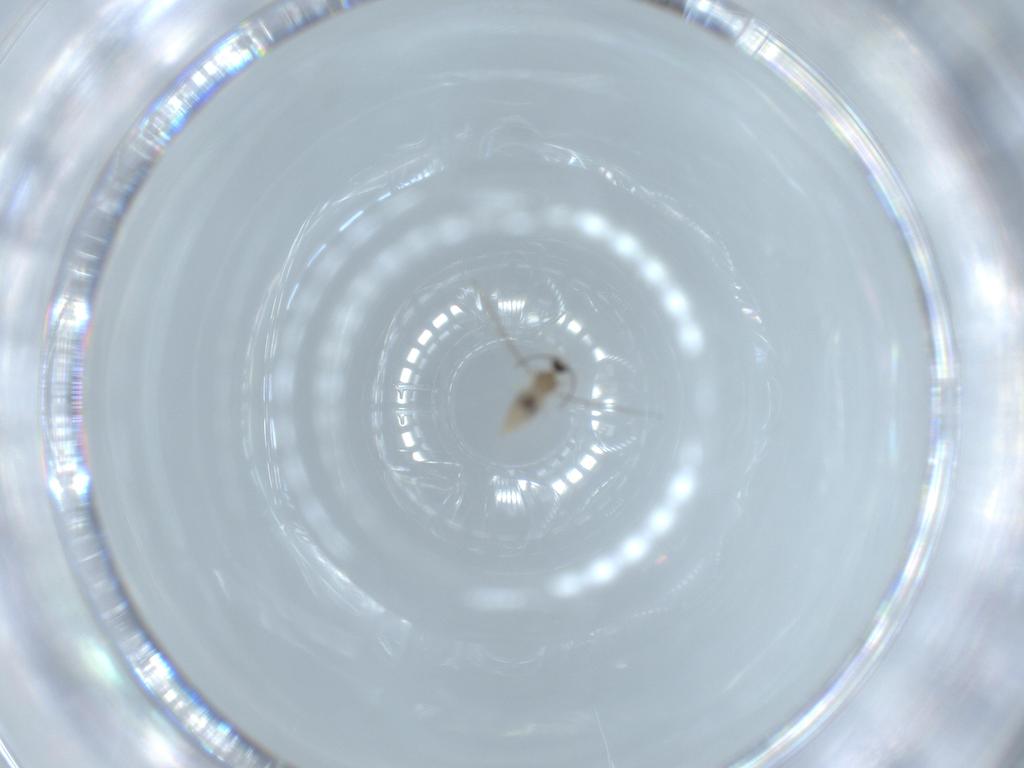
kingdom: Animalia
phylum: Arthropoda
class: Insecta
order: Diptera
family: Cecidomyiidae
